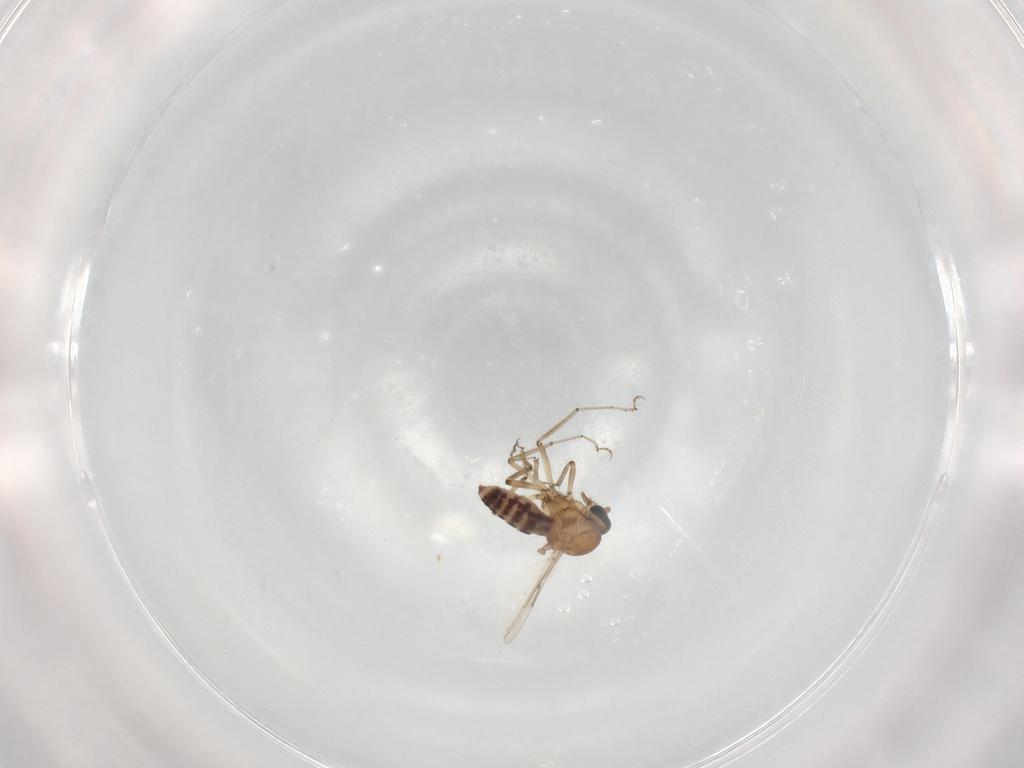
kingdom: Animalia
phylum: Arthropoda
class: Insecta
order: Diptera
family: Ceratopogonidae
